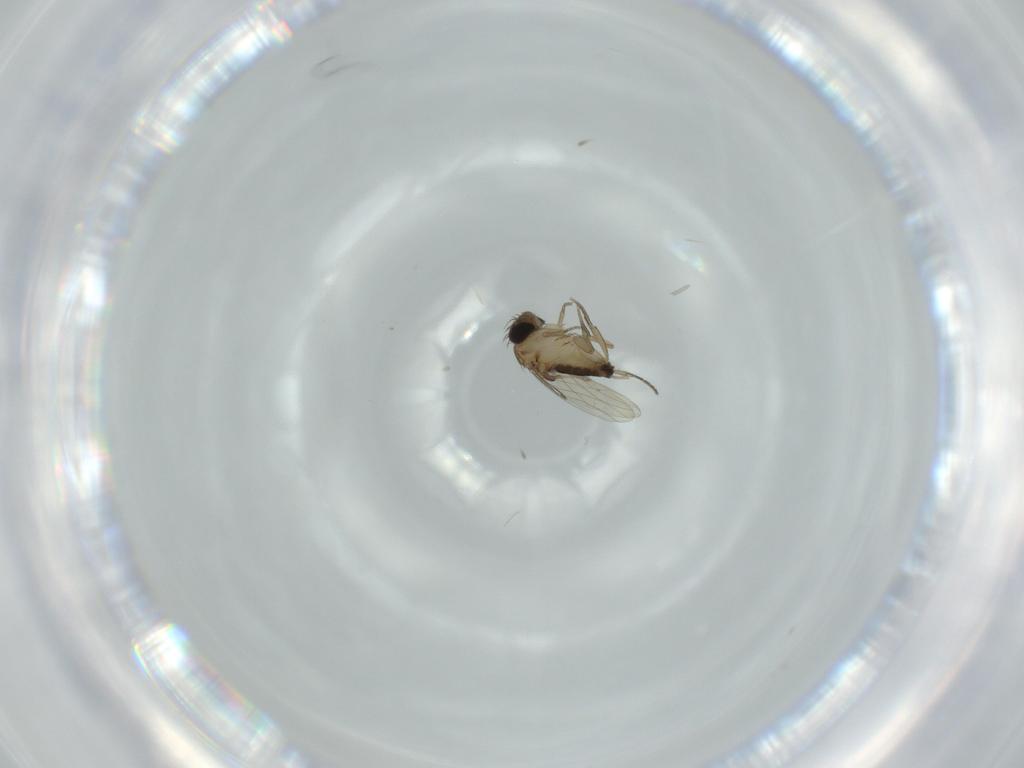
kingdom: Animalia
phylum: Arthropoda
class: Insecta
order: Diptera
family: Phoridae
